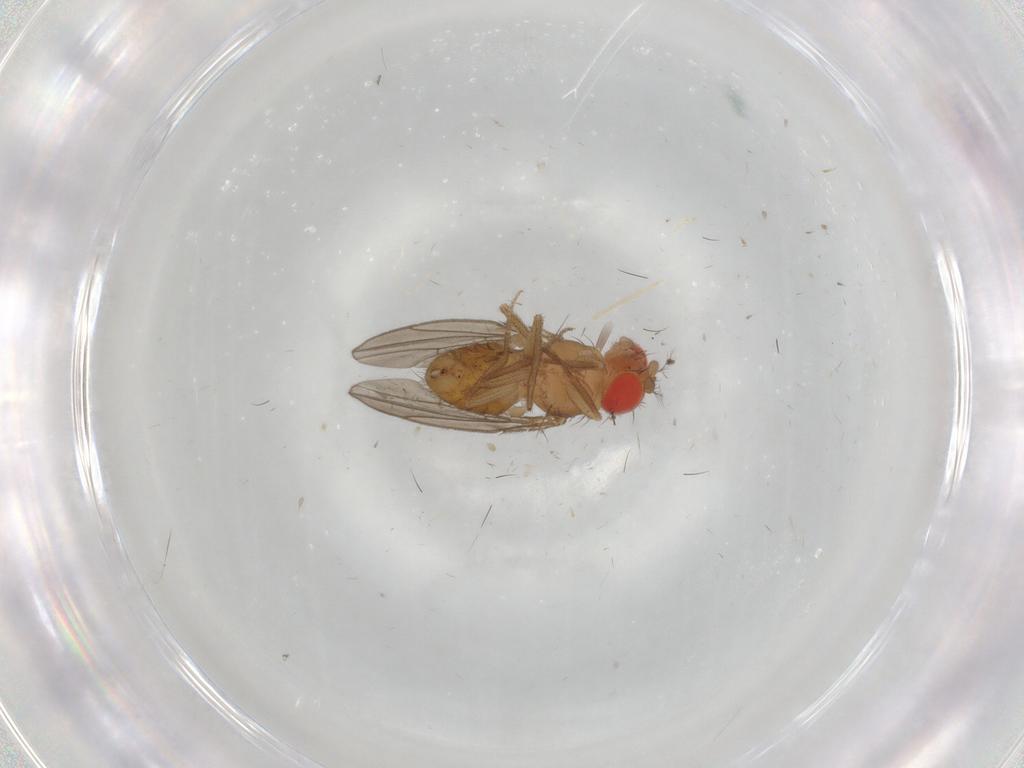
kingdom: Animalia
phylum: Arthropoda
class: Insecta
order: Diptera
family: Drosophilidae
